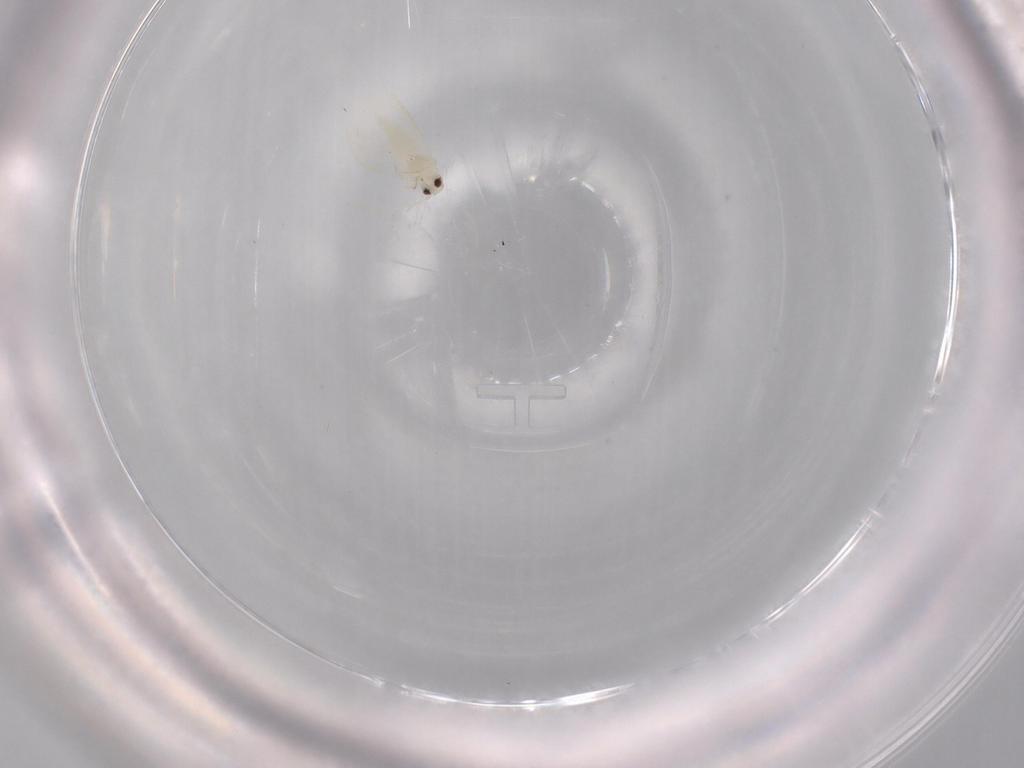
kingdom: Animalia
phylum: Arthropoda
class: Insecta
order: Hemiptera
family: Aleyrodidae
